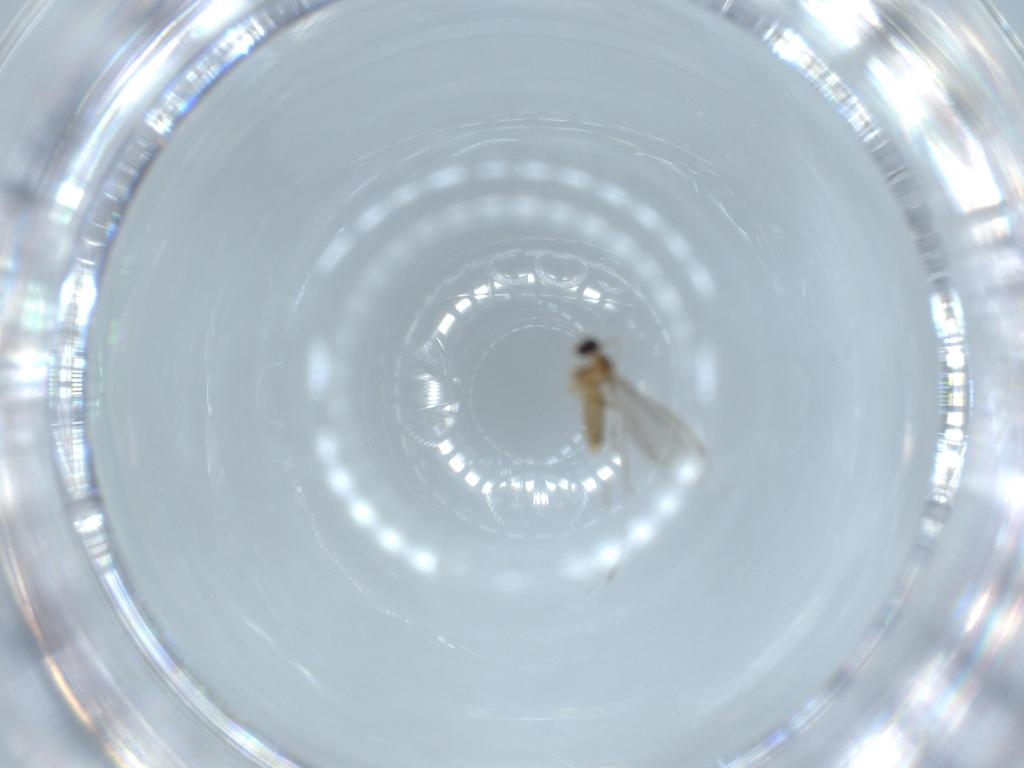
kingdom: Animalia
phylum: Arthropoda
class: Insecta
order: Diptera
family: Cecidomyiidae
